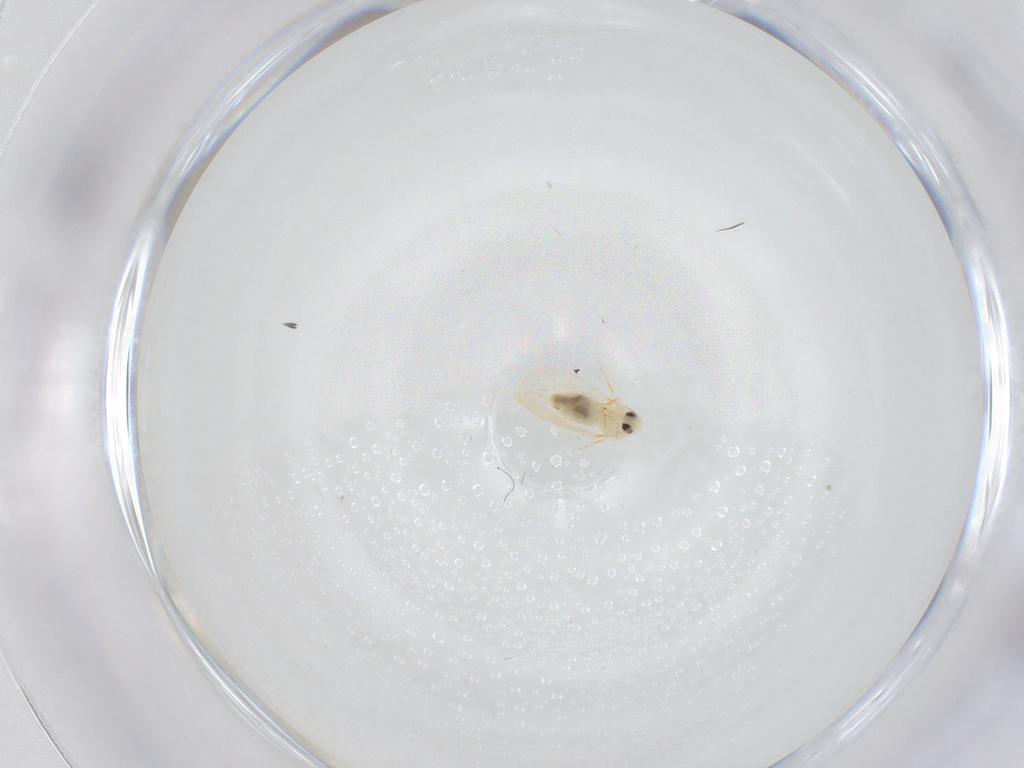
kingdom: Animalia
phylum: Arthropoda
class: Insecta
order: Hemiptera
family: Aleyrodidae
